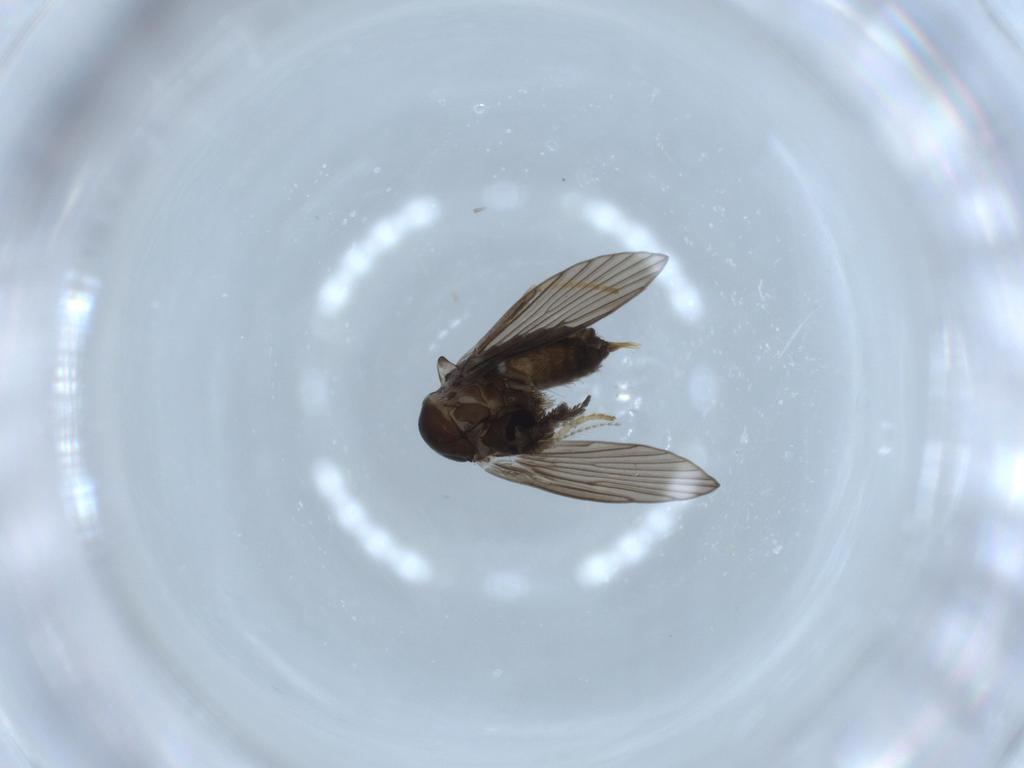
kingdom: Animalia
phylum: Arthropoda
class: Insecta
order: Diptera
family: Psychodidae
